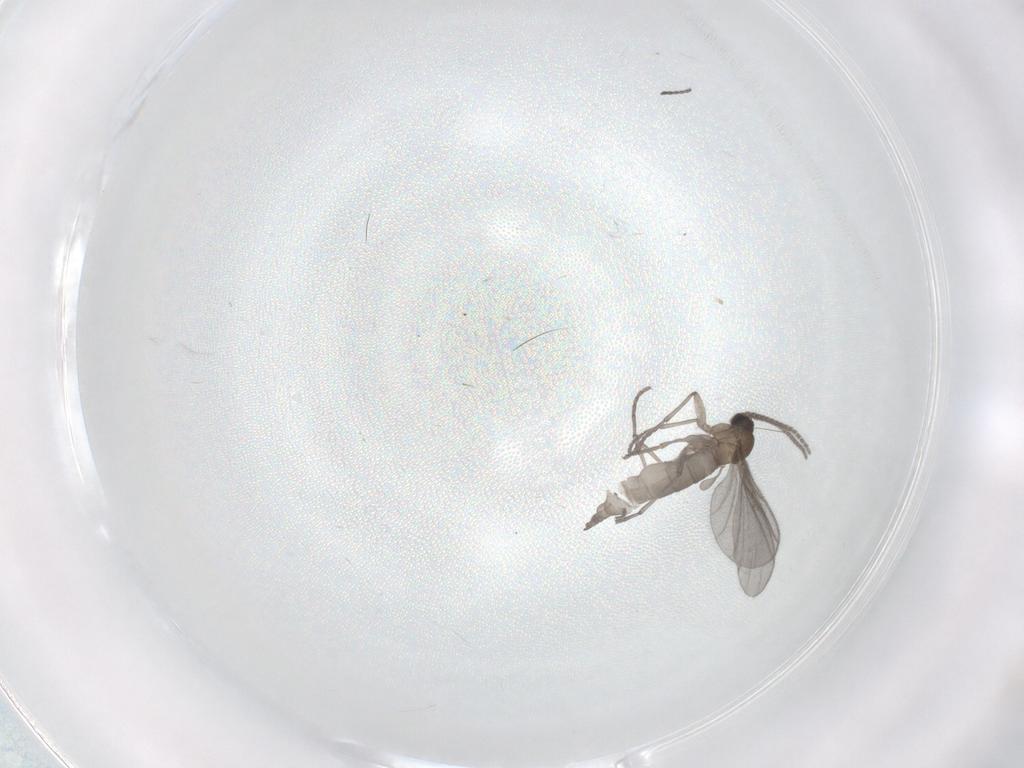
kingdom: Animalia
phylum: Arthropoda
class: Insecta
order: Diptera
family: Sciaridae
